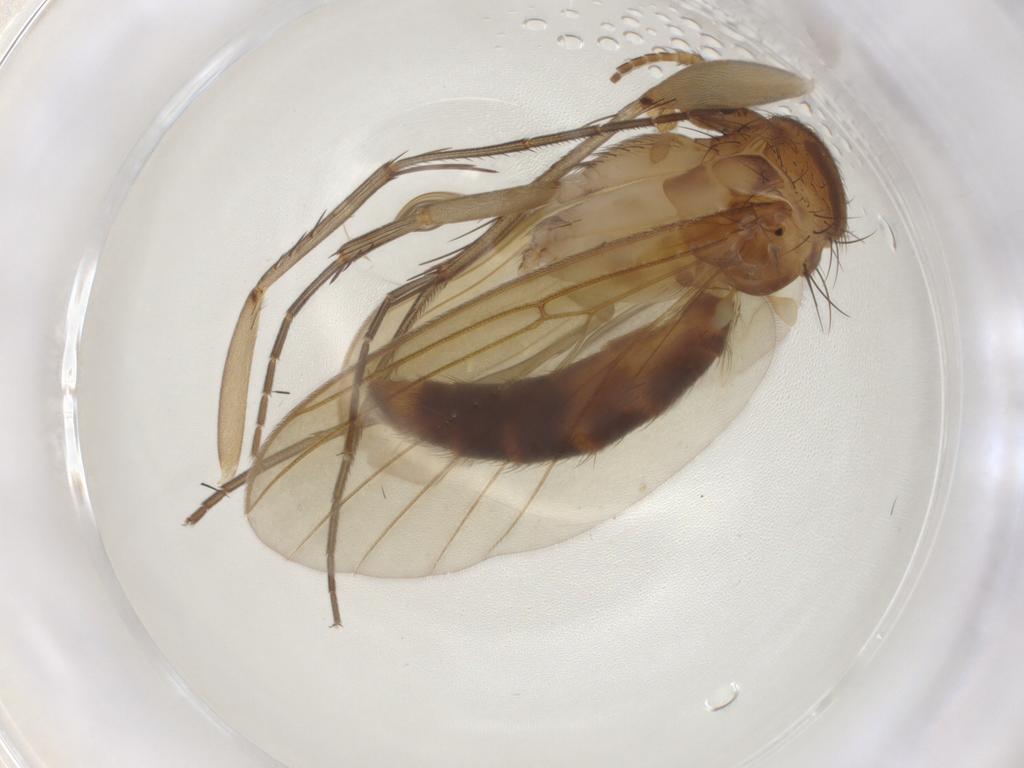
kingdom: Animalia
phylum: Arthropoda
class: Insecta
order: Diptera
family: Mycetophilidae
